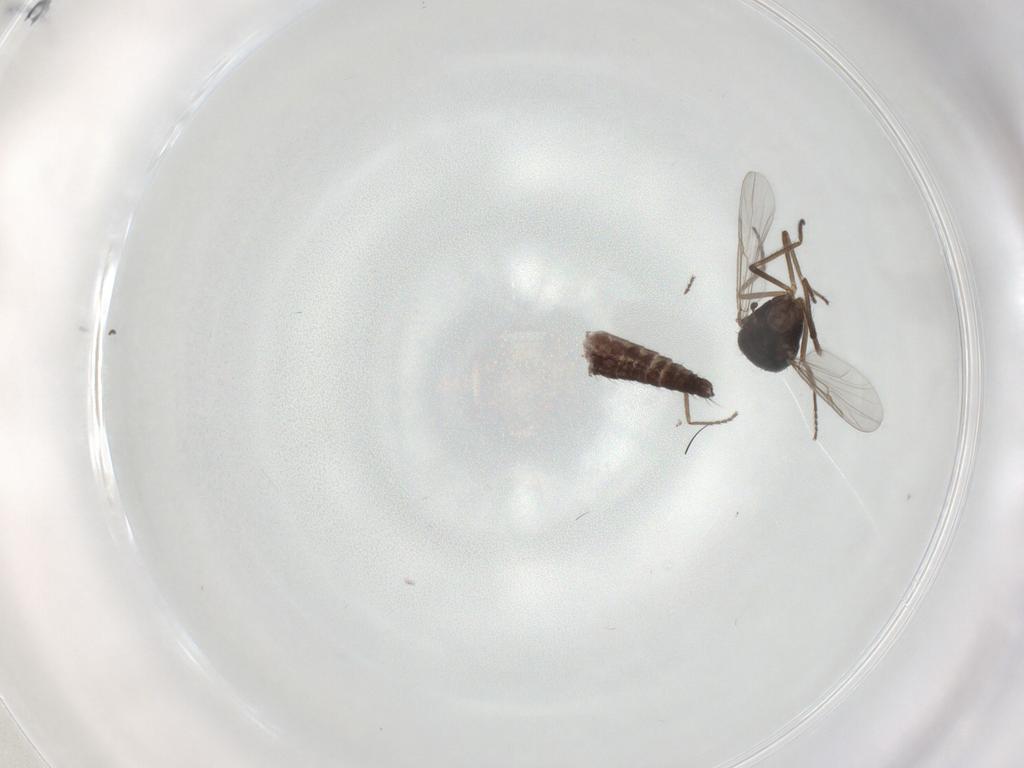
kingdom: Animalia
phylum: Arthropoda
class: Insecta
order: Diptera
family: Ceratopogonidae
